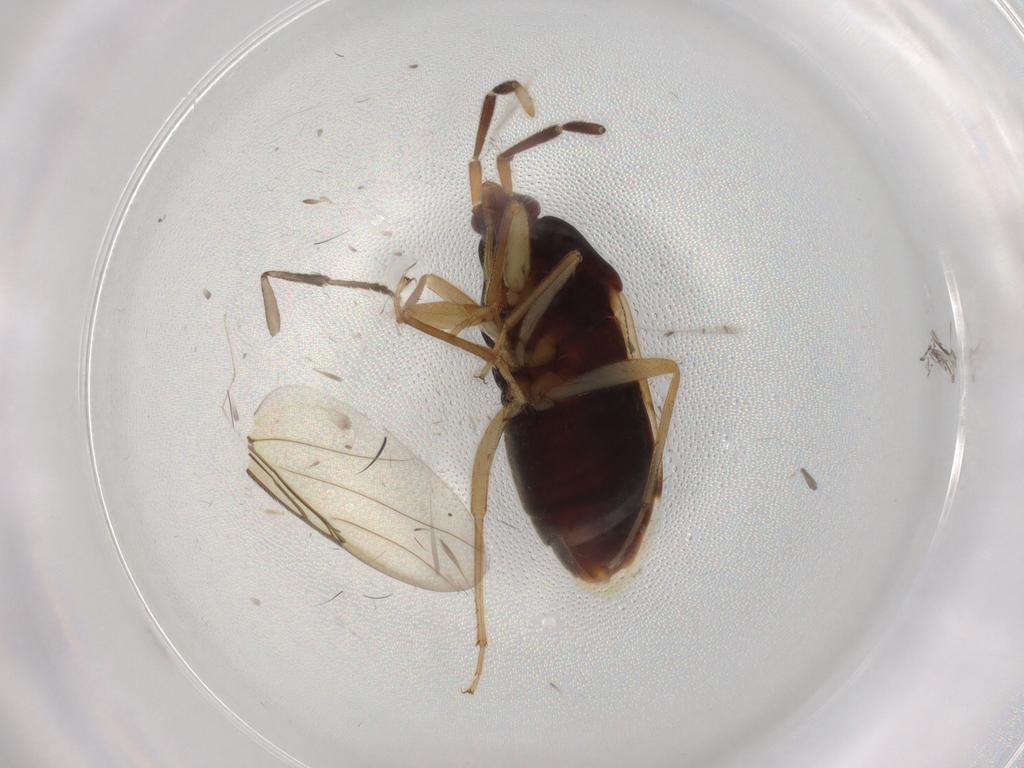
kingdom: Animalia
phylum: Arthropoda
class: Insecta
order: Hemiptera
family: Rhyparochromidae
